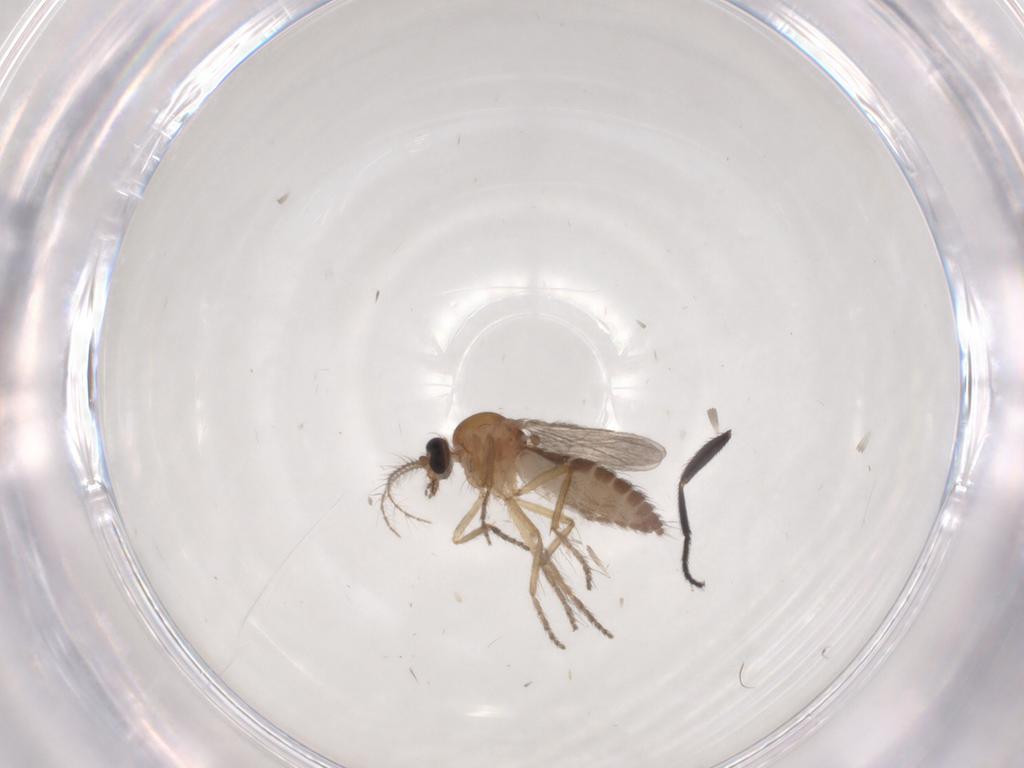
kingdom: Animalia
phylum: Arthropoda
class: Insecta
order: Diptera
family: Ceratopogonidae
